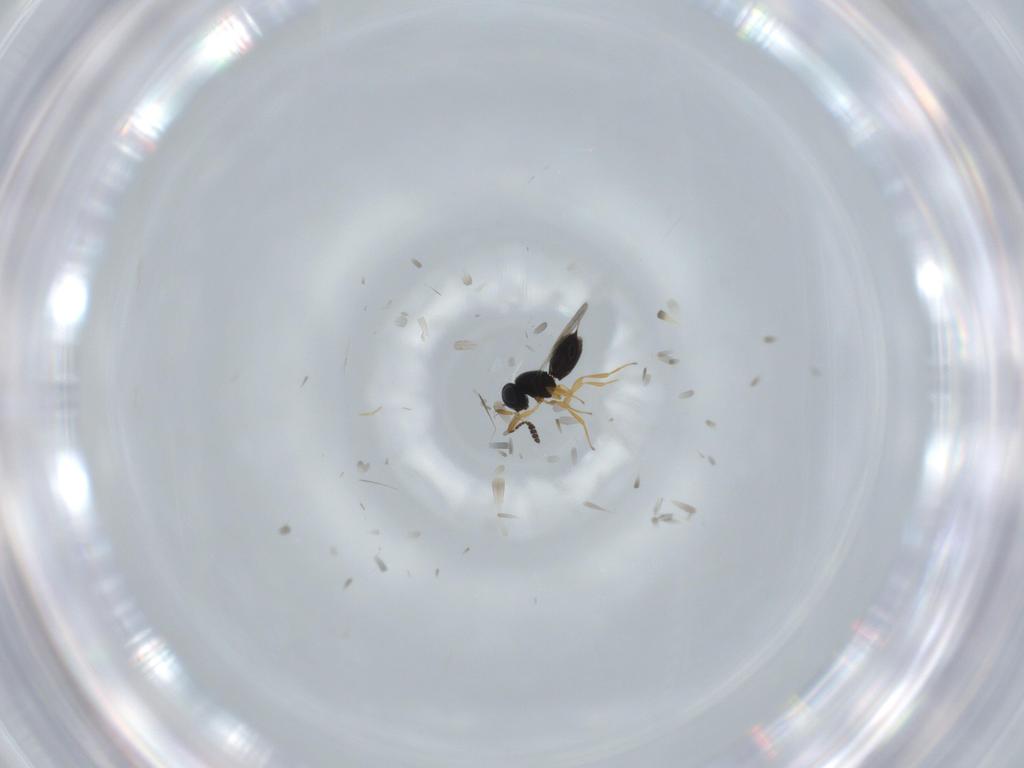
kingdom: Animalia
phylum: Arthropoda
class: Insecta
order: Hymenoptera
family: Scelionidae
